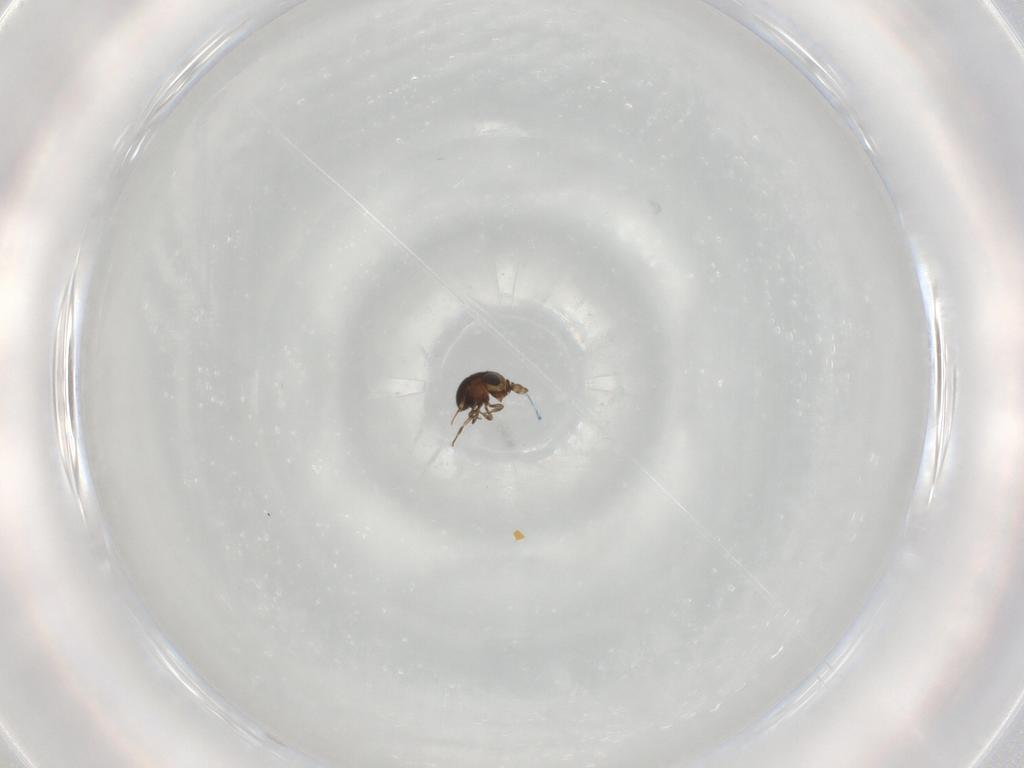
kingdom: Animalia
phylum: Arthropoda
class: Insecta
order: Hymenoptera
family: Scelionidae
